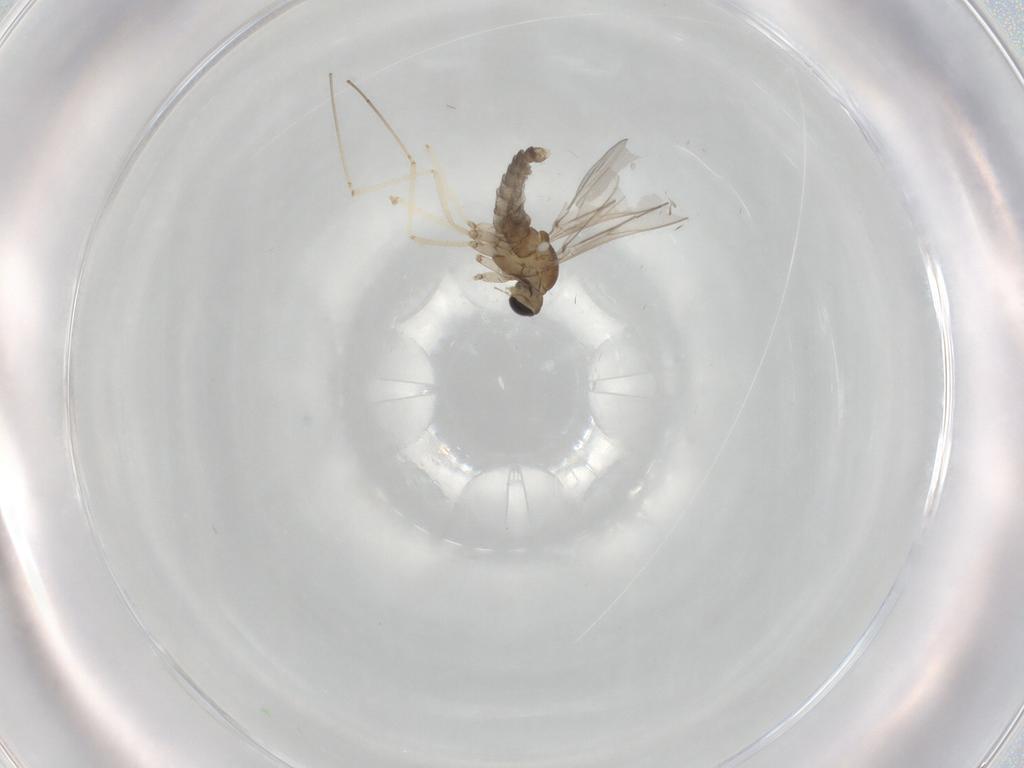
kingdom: Animalia
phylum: Arthropoda
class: Insecta
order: Diptera
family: Cecidomyiidae
